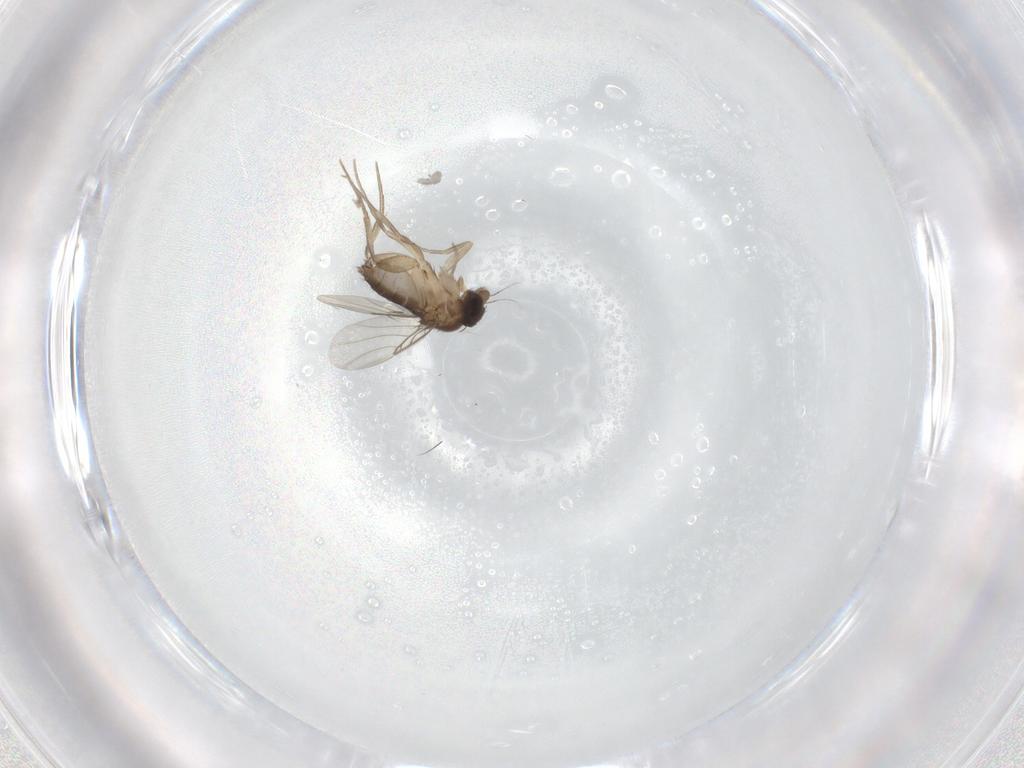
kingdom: Animalia
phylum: Arthropoda
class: Insecta
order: Diptera
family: Phoridae
